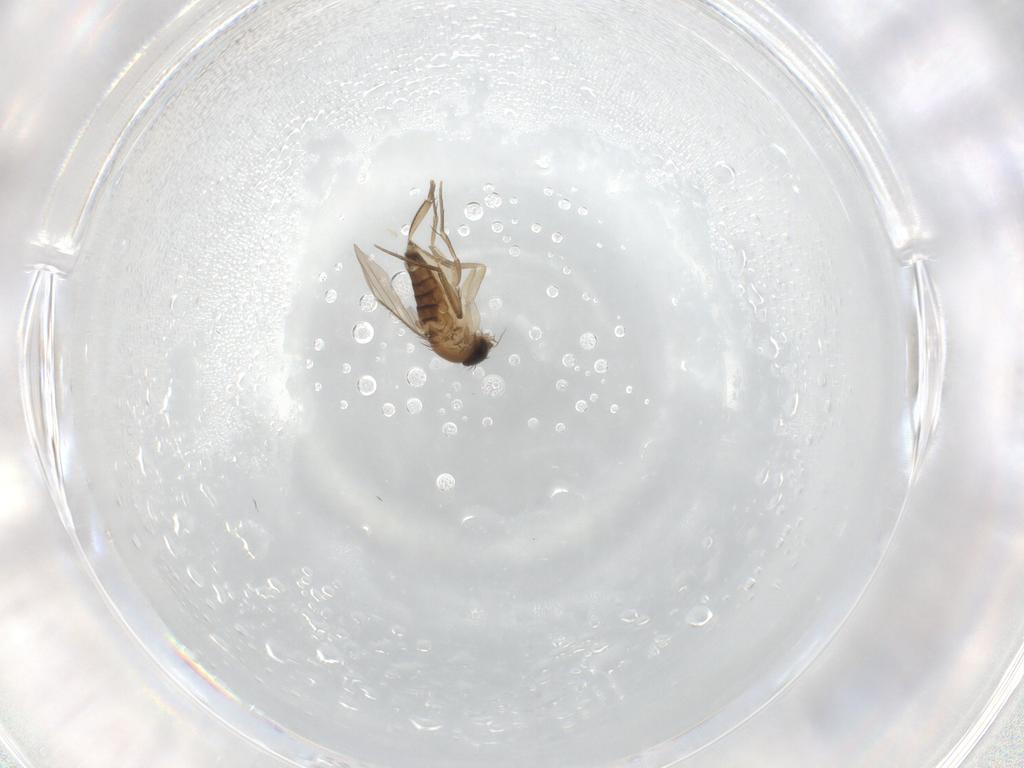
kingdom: Animalia
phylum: Arthropoda
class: Insecta
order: Diptera
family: Phoridae
